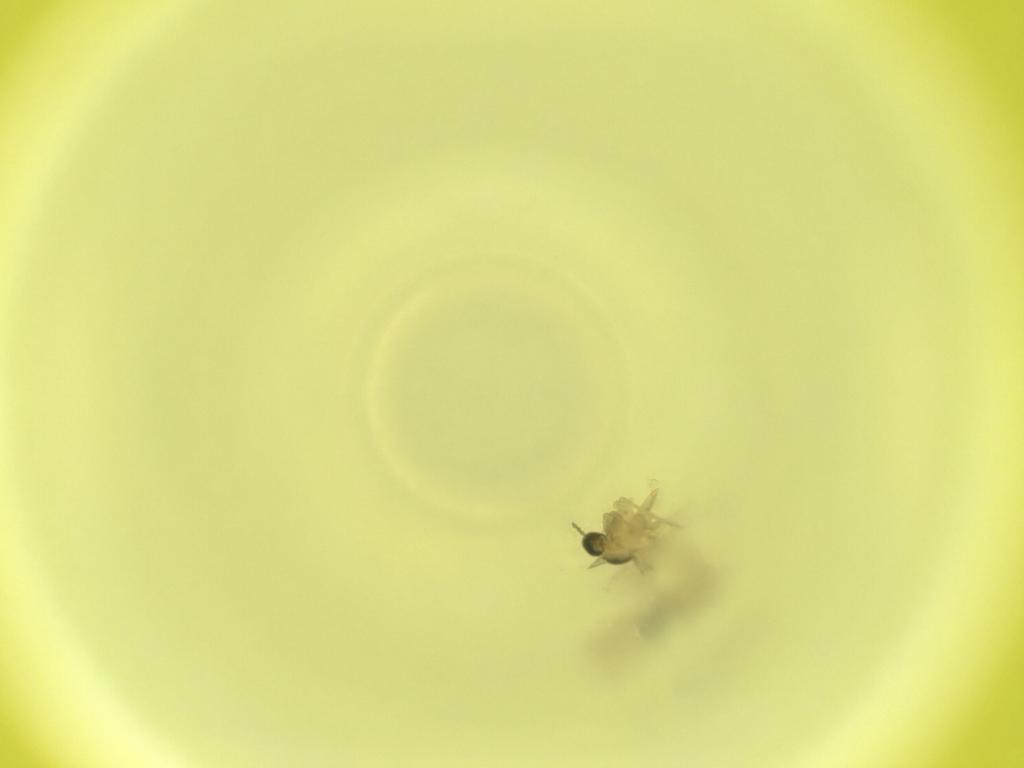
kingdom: Animalia
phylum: Arthropoda
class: Insecta
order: Diptera
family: Cecidomyiidae
